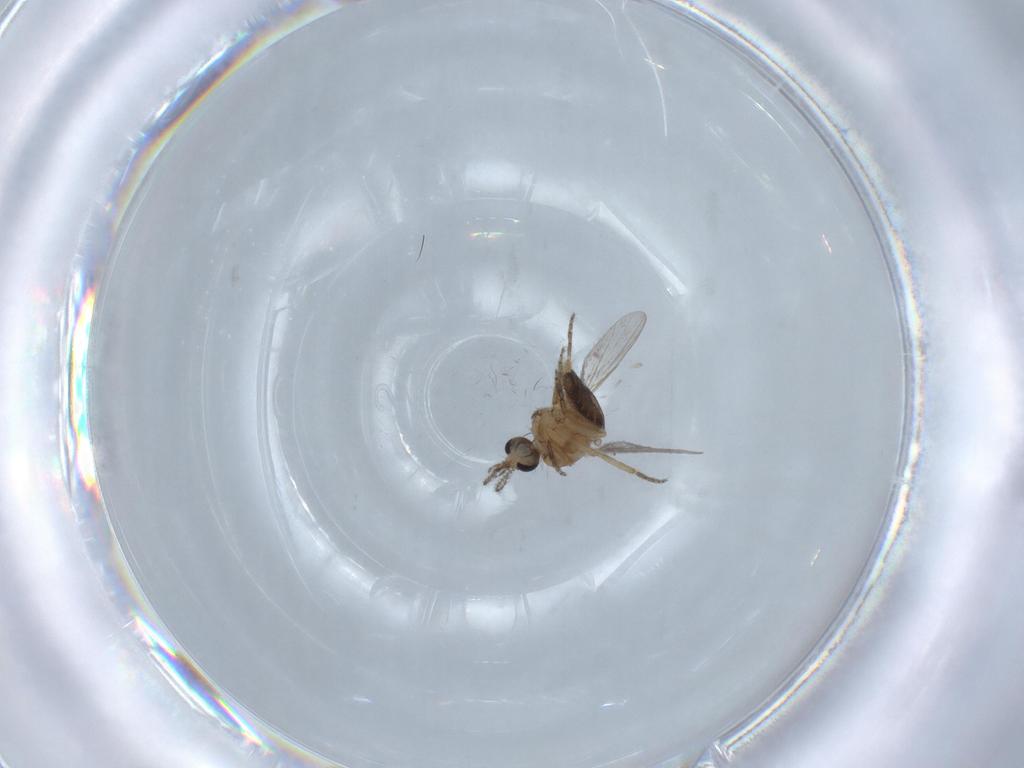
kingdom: Animalia
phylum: Arthropoda
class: Insecta
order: Diptera
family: Ceratopogonidae
